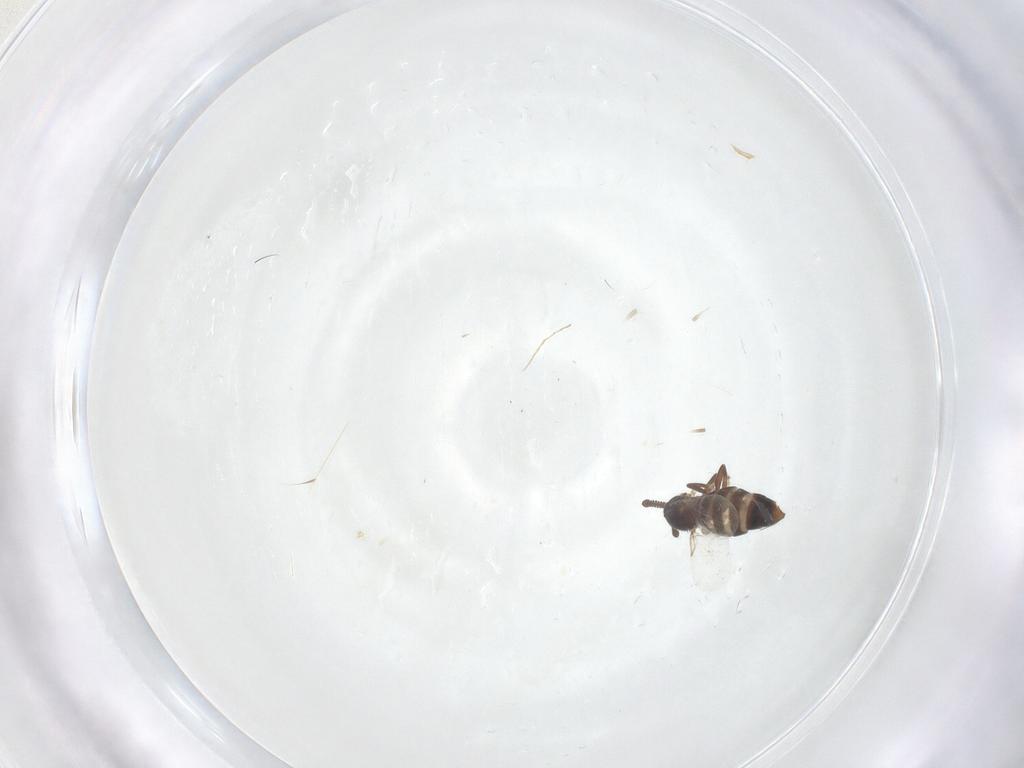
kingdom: Animalia
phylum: Arthropoda
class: Insecta
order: Diptera
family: Scatopsidae
